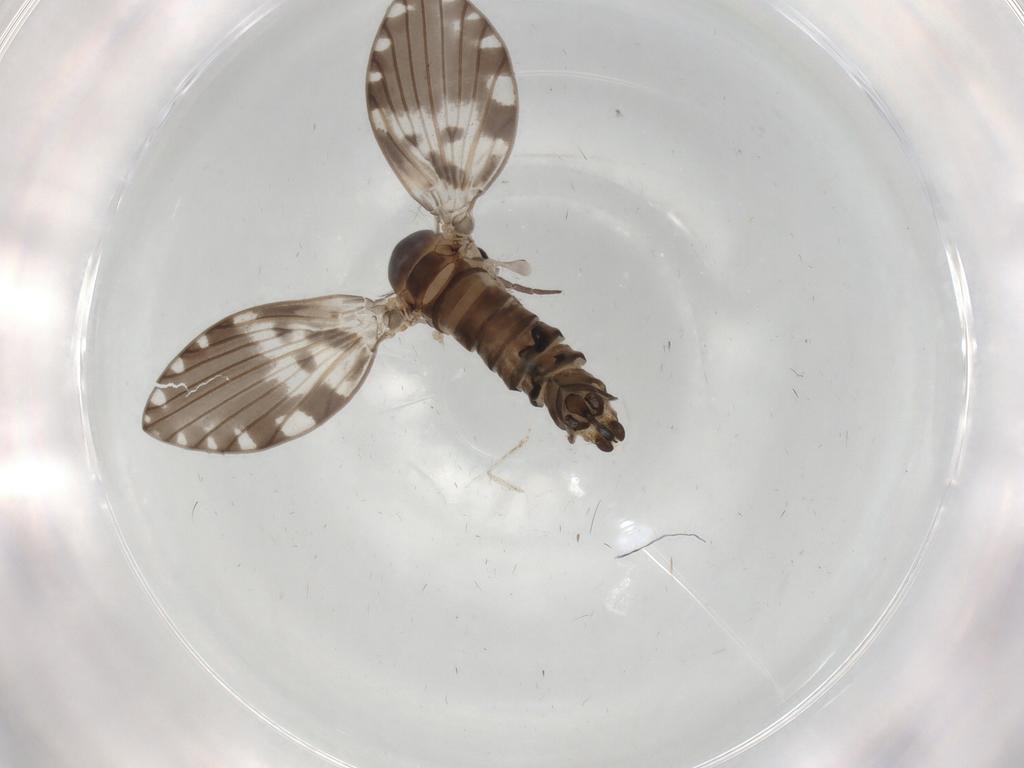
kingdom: Animalia
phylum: Arthropoda
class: Insecta
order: Diptera
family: Psychodidae
